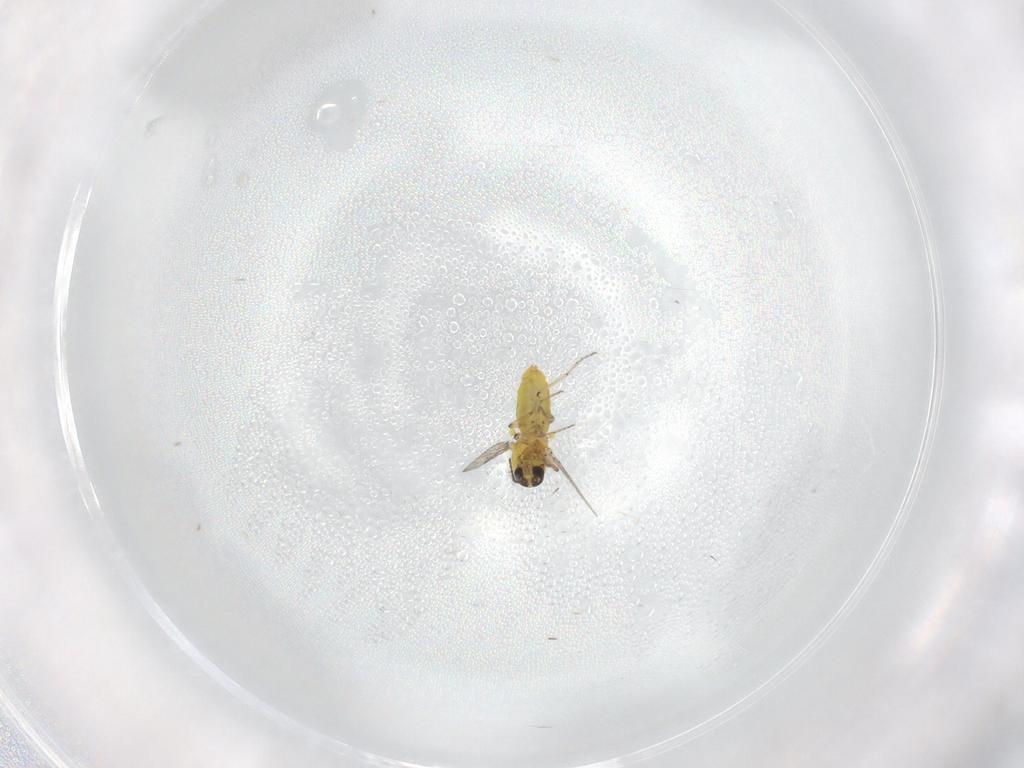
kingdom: Animalia
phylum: Arthropoda
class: Insecta
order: Diptera
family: Ceratopogonidae
